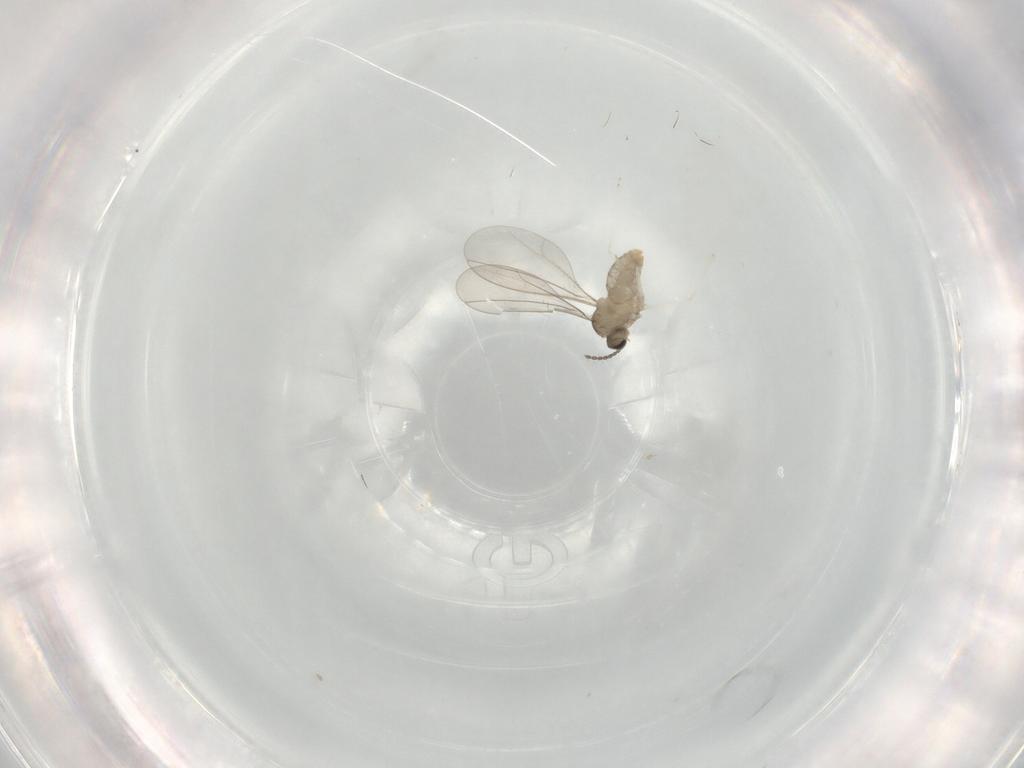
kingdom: Animalia
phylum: Arthropoda
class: Insecta
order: Diptera
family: Cecidomyiidae
